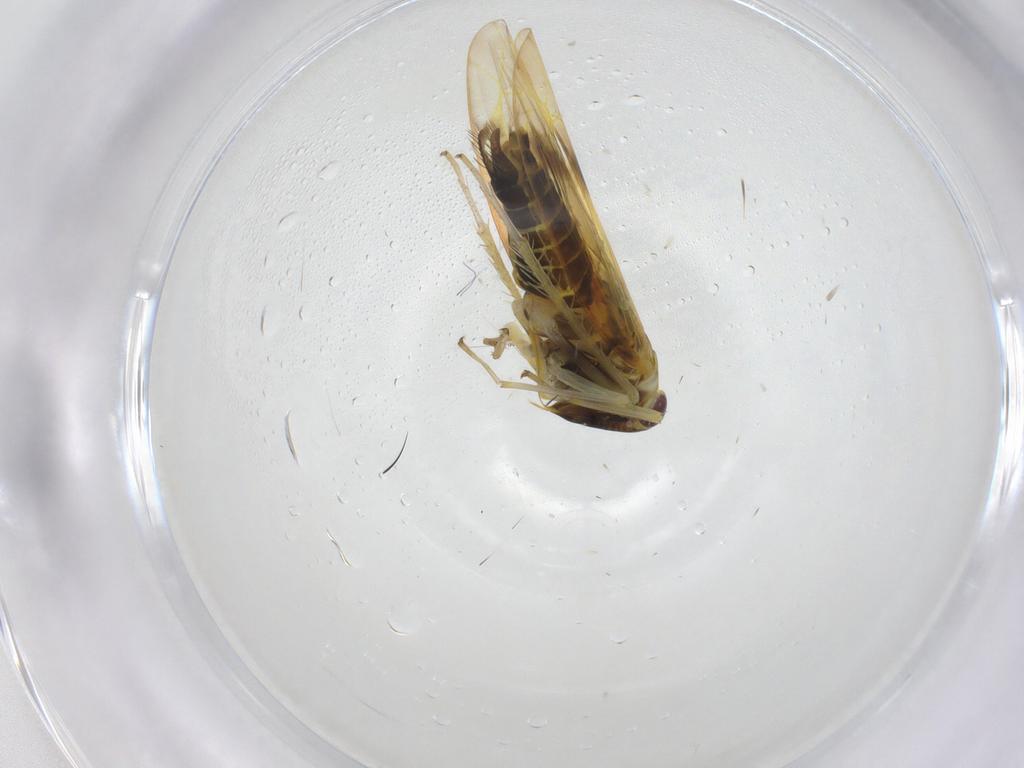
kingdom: Animalia
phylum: Arthropoda
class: Insecta
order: Hemiptera
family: Cicadellidae
